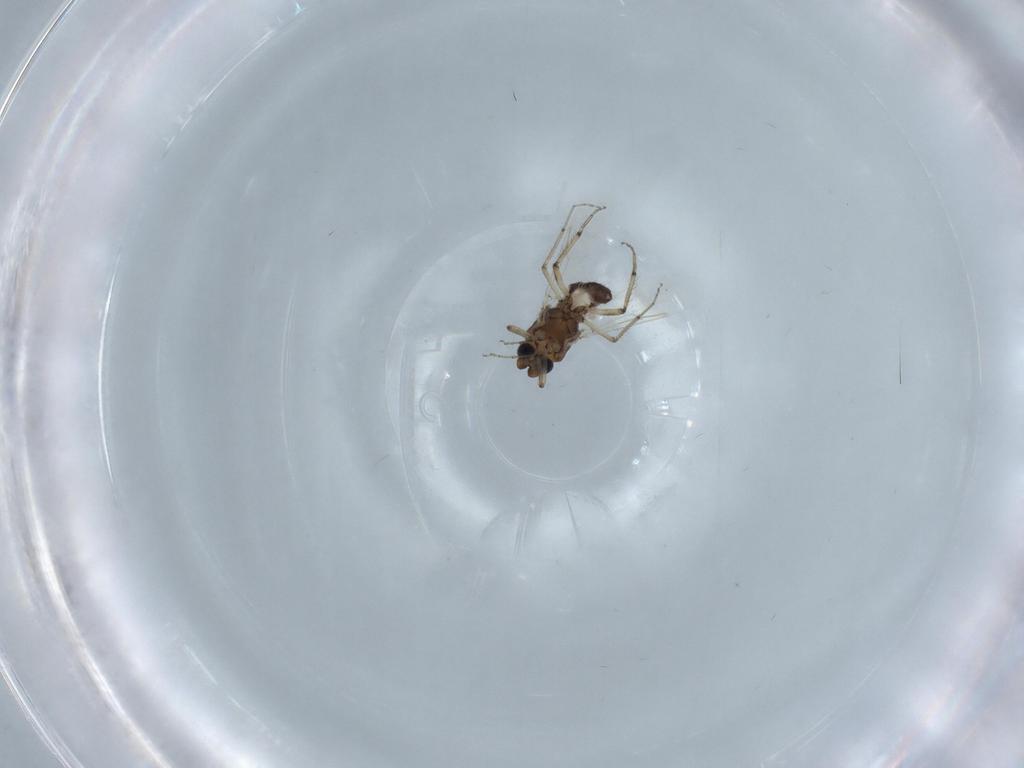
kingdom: Animalia
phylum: Arthropoda
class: Insecta
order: Diptera
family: Ceratopogonidae
